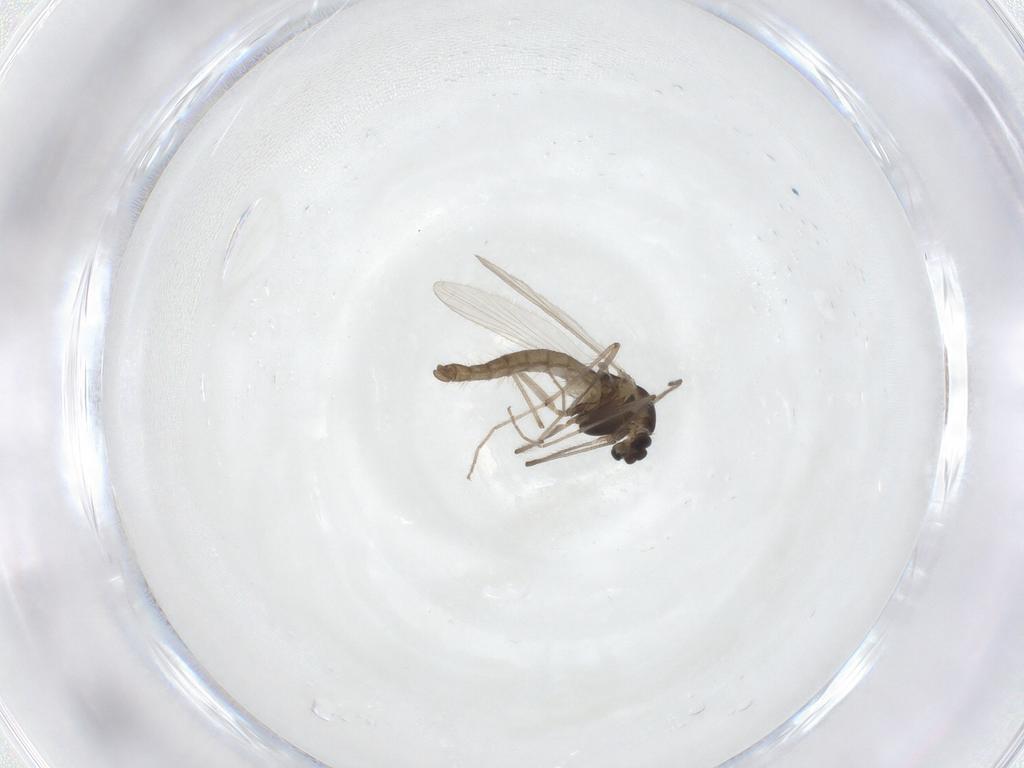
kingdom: Animalia
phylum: Arthropoda
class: Insecta
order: Diptera
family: Chironomidae
